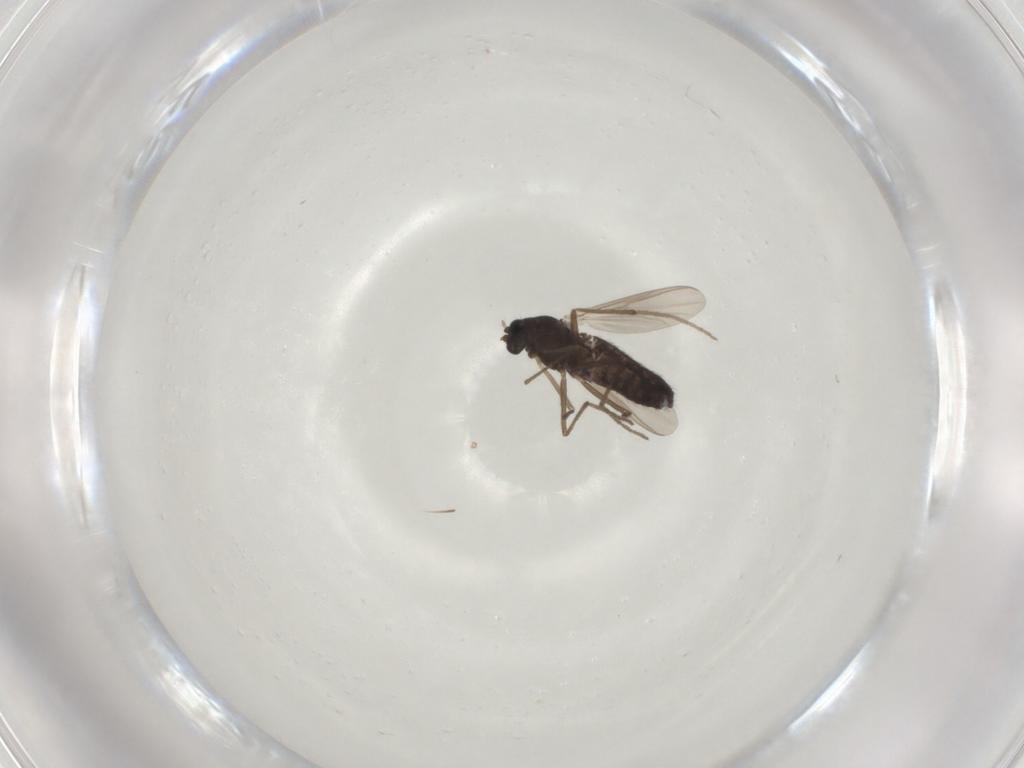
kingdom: Animalia
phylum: Arthropoda
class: Insecta
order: Diptera
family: Chironomidae
